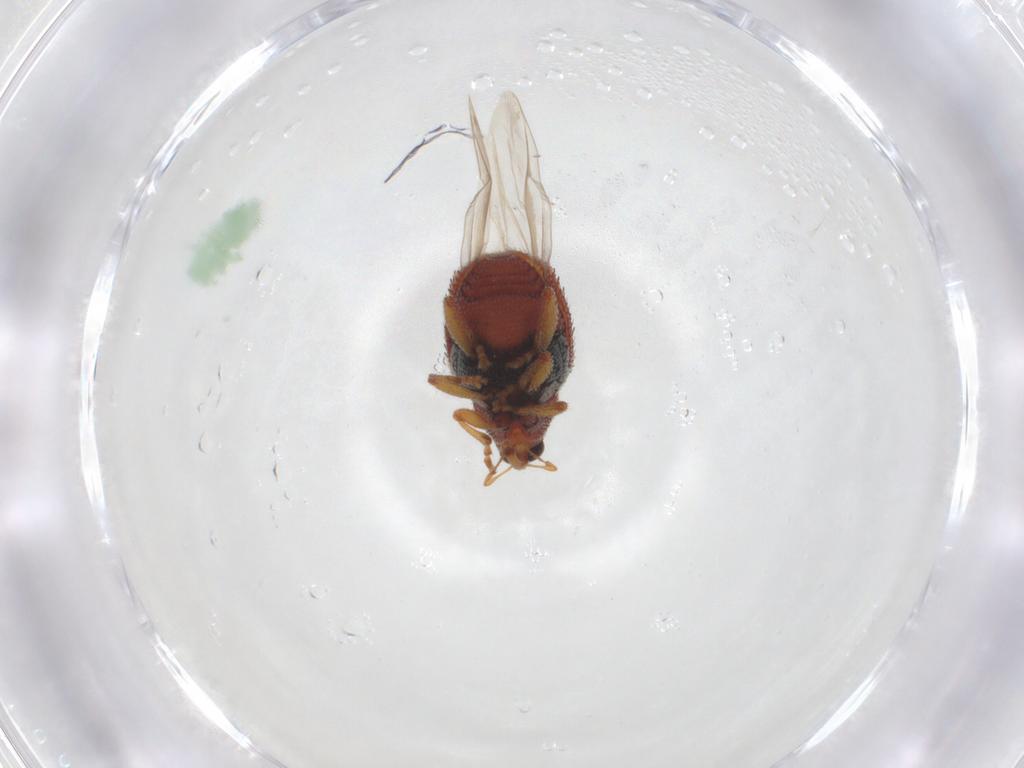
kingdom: Animalia
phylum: Arthropoda
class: Insecta
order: Coleoptera
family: Curculionidae
